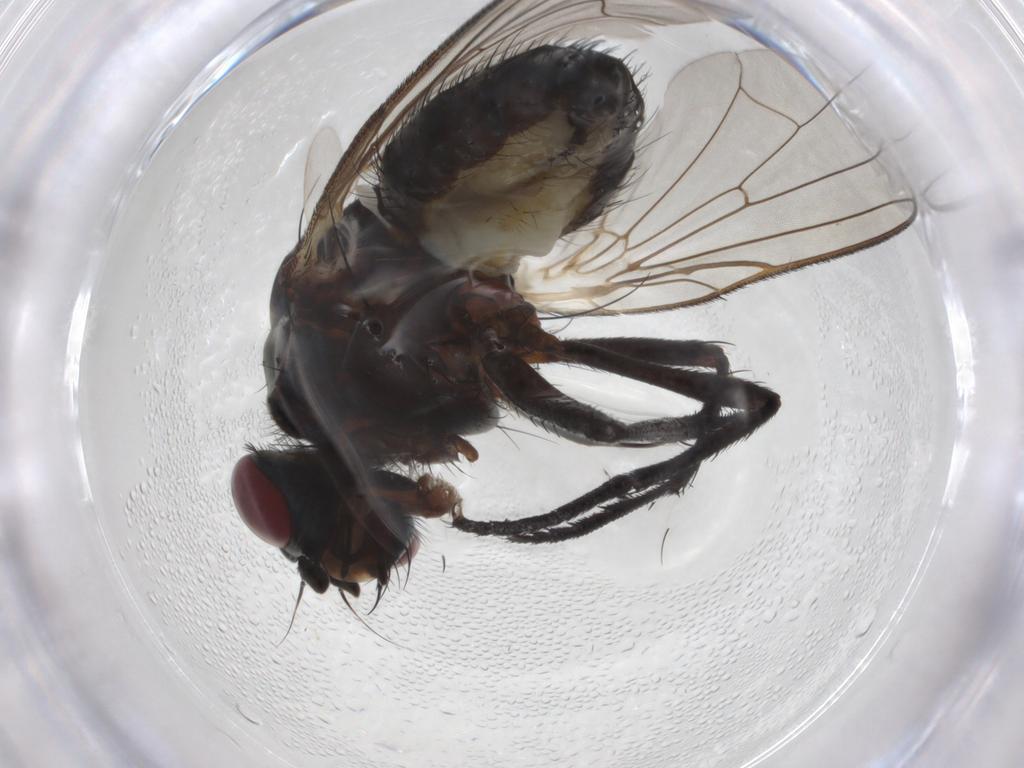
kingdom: Animalia
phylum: Arthropoda
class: Insecta
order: Diptera
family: Anthomyiidae
